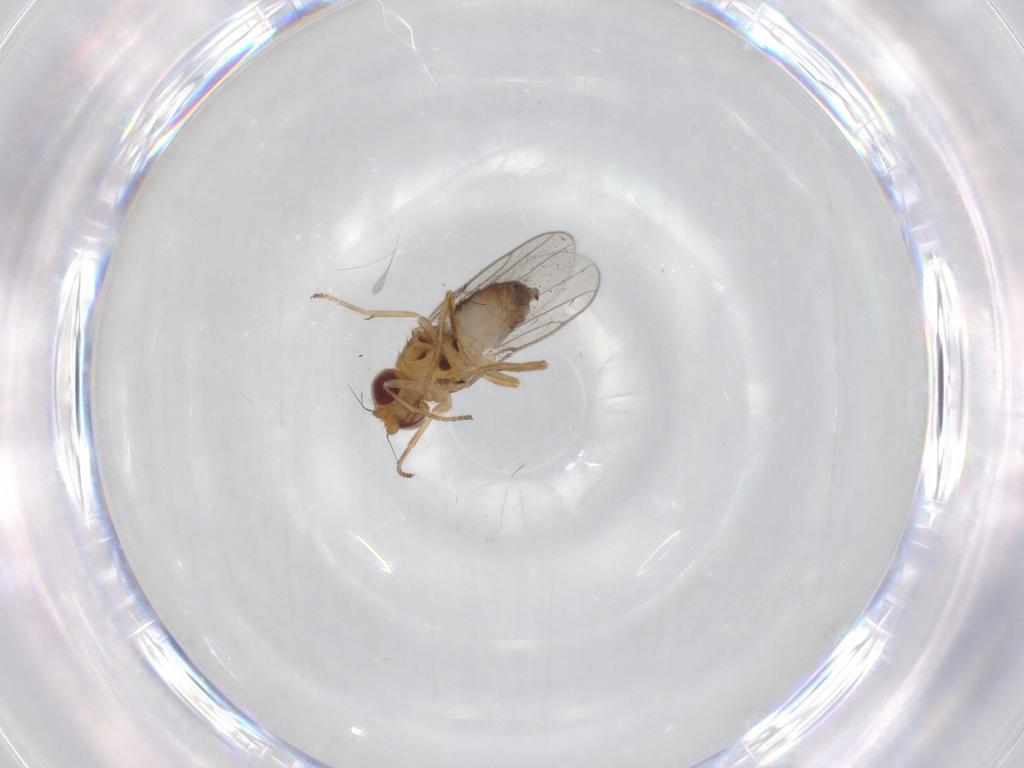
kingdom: Animalia
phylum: Arthropoda
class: Insecta
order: Diptera
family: Chloropidae
